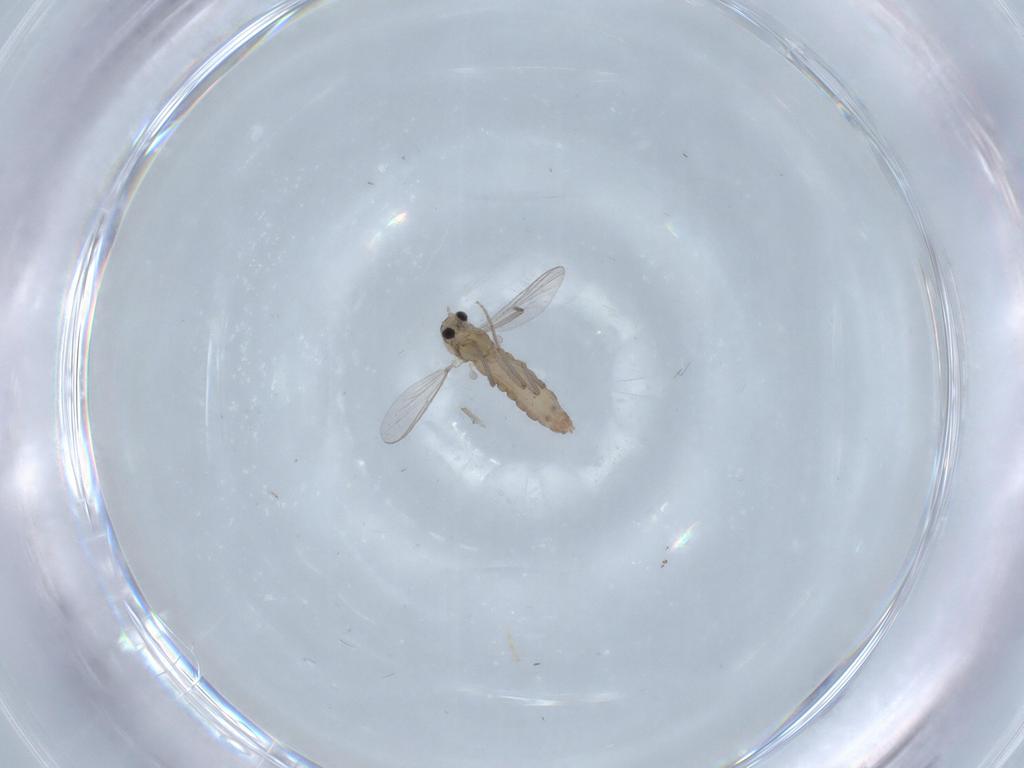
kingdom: Animalia
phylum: Arthropoda
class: Insecta
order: Diptera
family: Chironomidae
